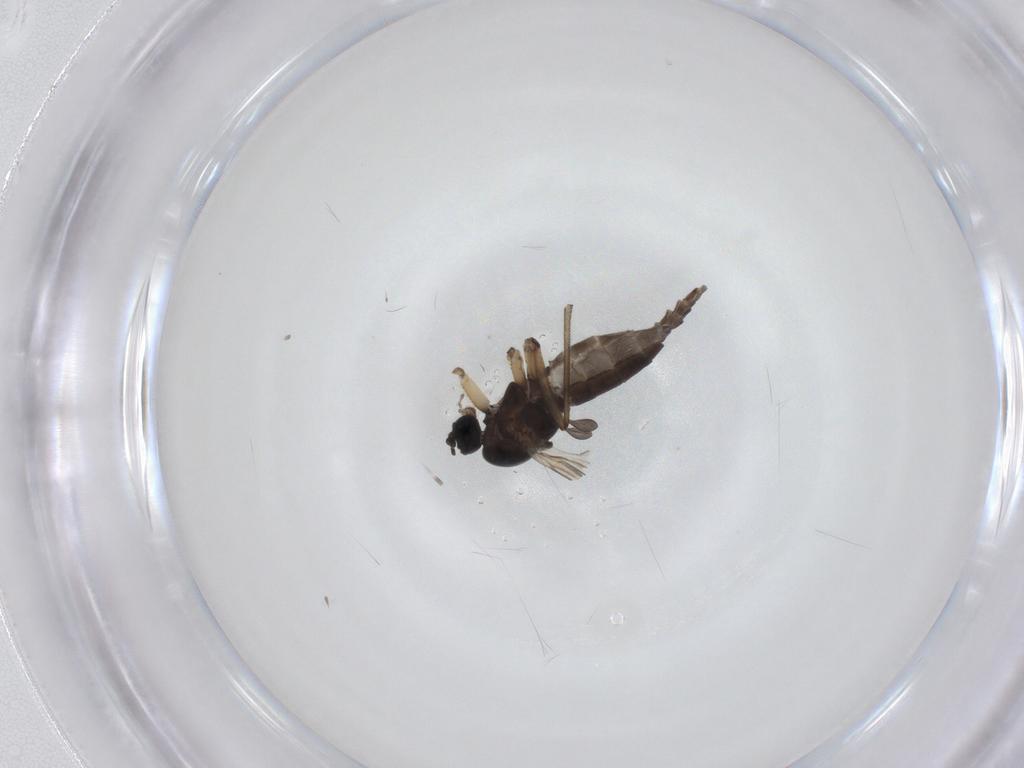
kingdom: Animalia
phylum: Arthropoda
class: Insecta
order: Diptera
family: Sciaridae
